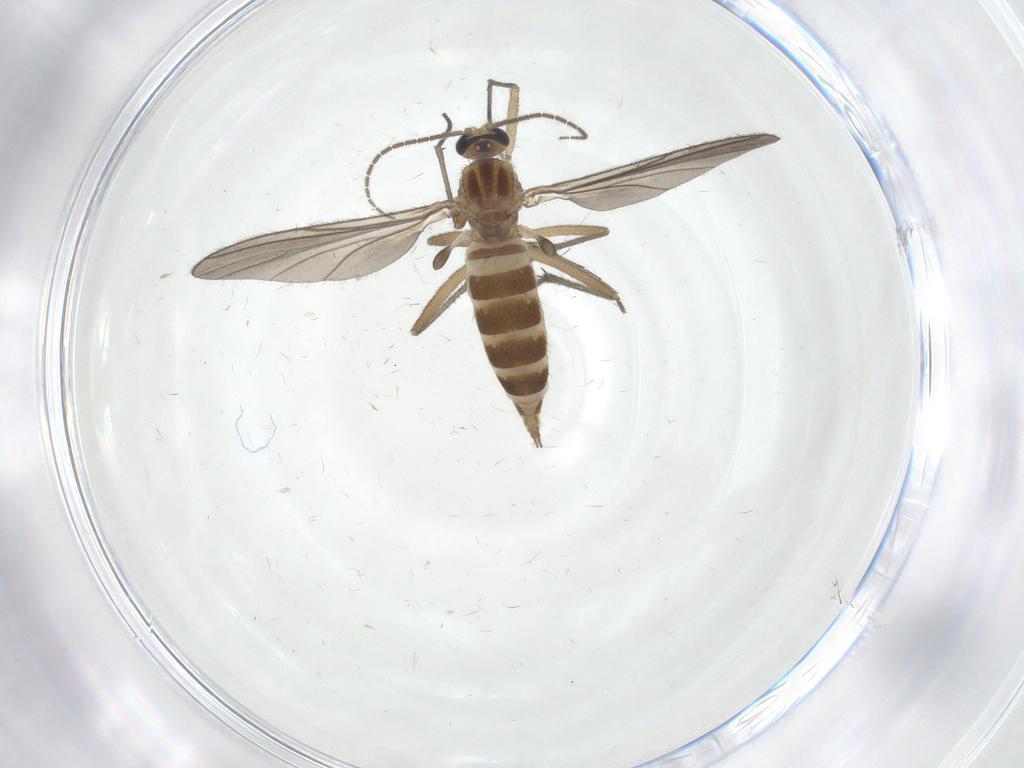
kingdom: Animalia
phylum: Arthropoda
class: Insecta
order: Diptera
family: Sciaridae
